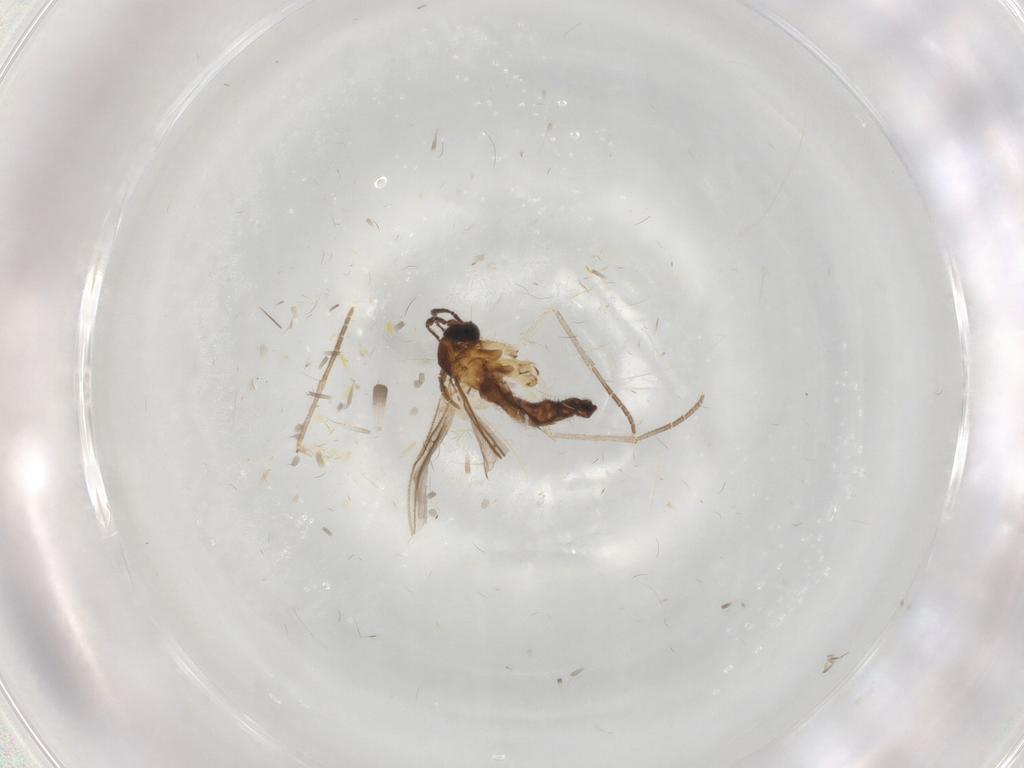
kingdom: Animalia
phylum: Arthropoda
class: Insecta
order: Diptera
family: Sciaridae
